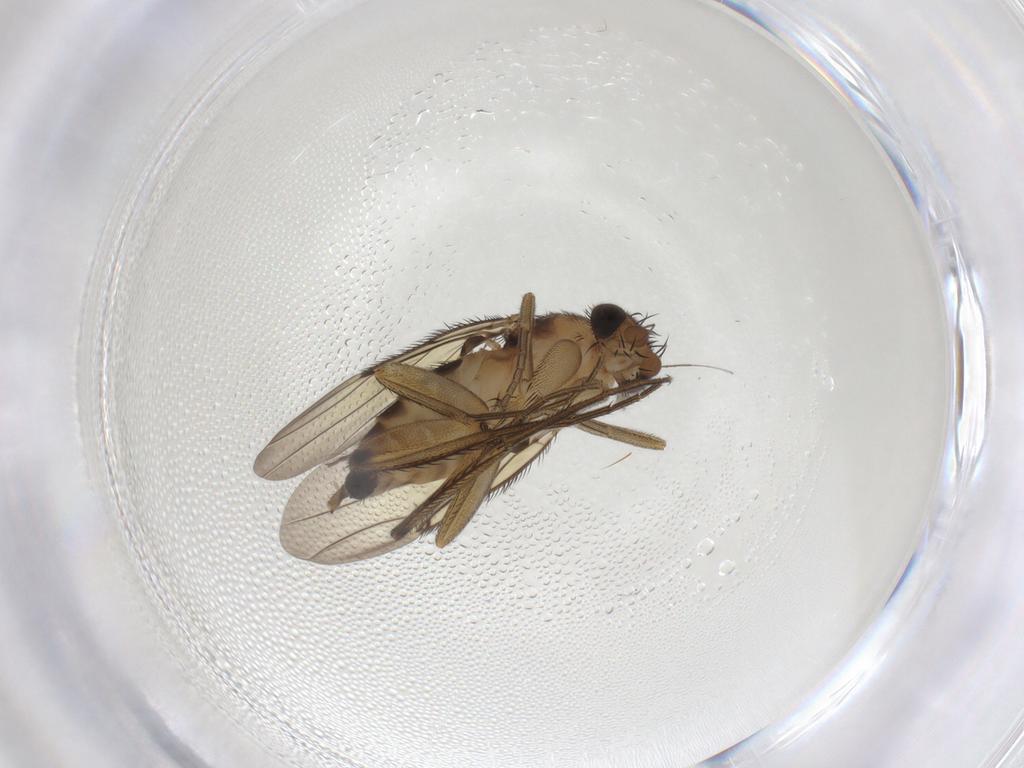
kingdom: Animalia
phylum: Arthropoda
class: Insecta
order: Diptera
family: Phoridae
